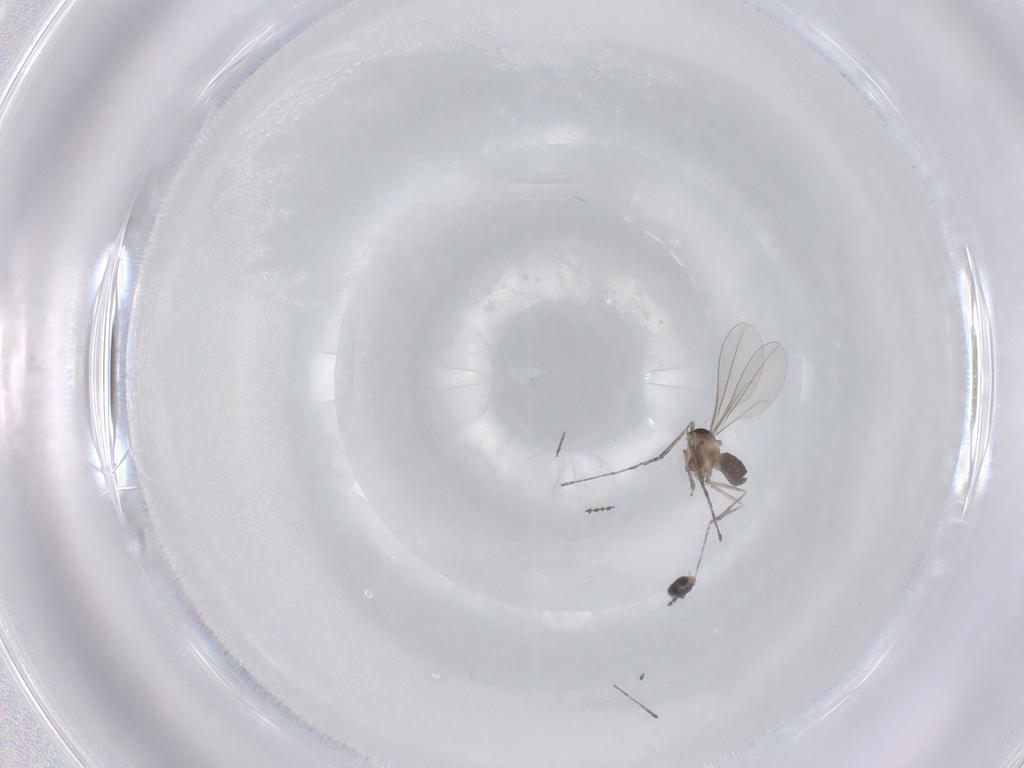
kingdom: Animalia
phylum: Arthropoda
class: Insecta
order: Diptera
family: Cecidomyiidae
